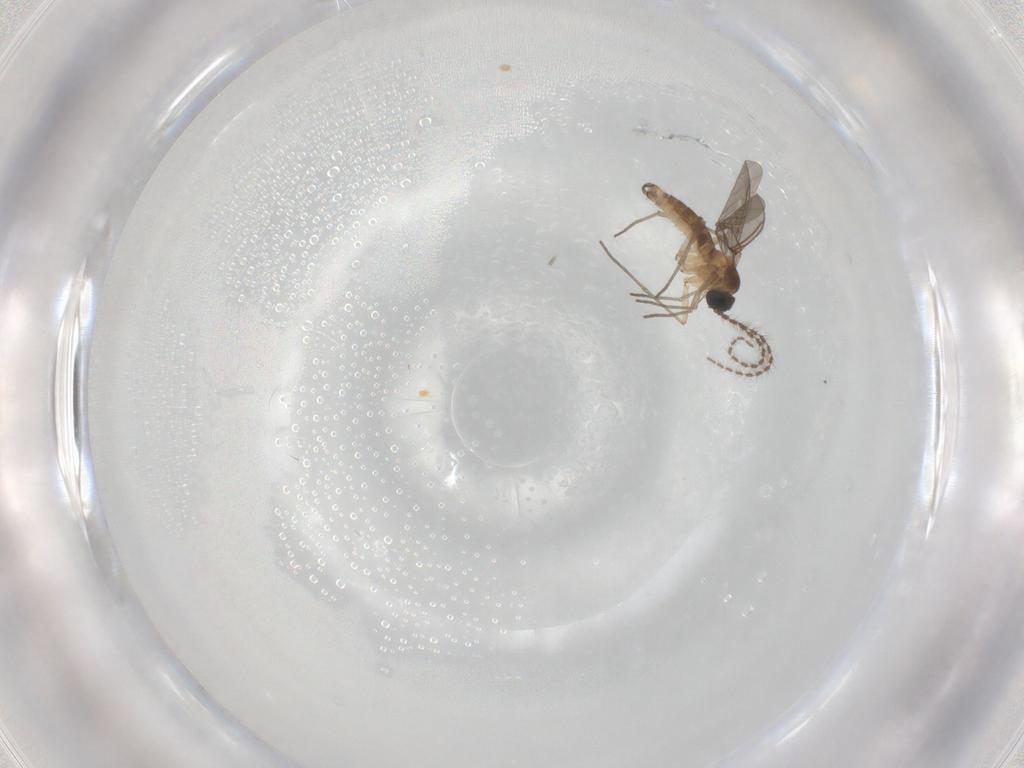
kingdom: Animalia
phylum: Arthropoda
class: Insecta
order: Diptera
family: Sciaridae
